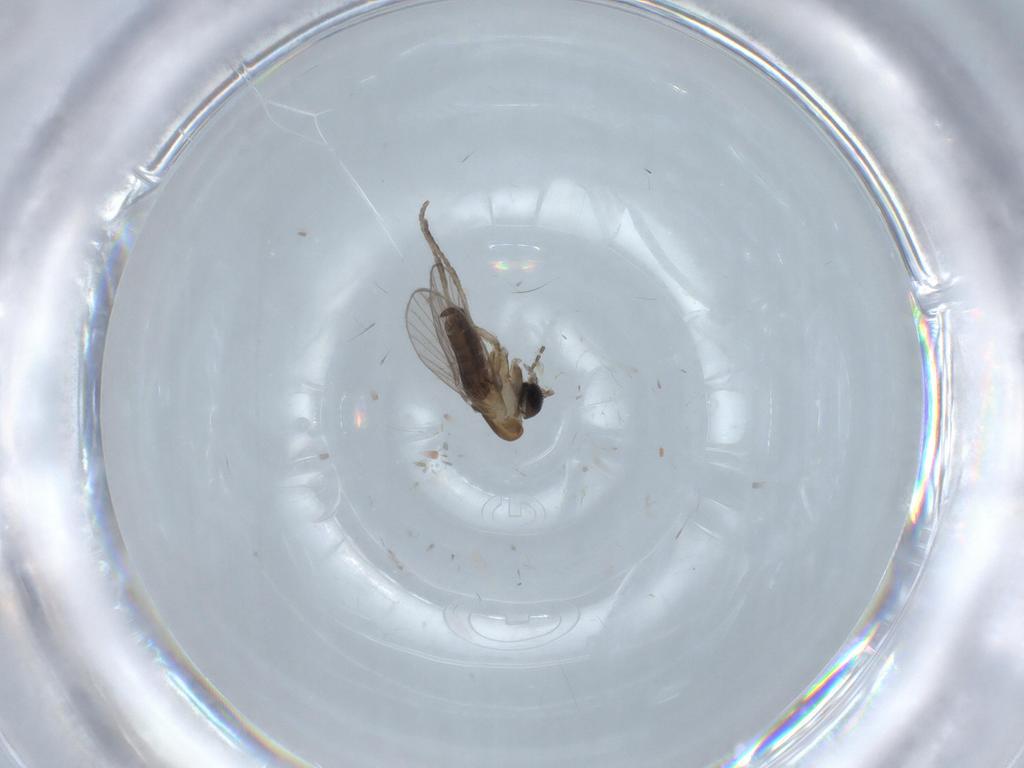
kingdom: Animalia
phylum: Arthropoda
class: Insecta
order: Diptera
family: Psychodidae
